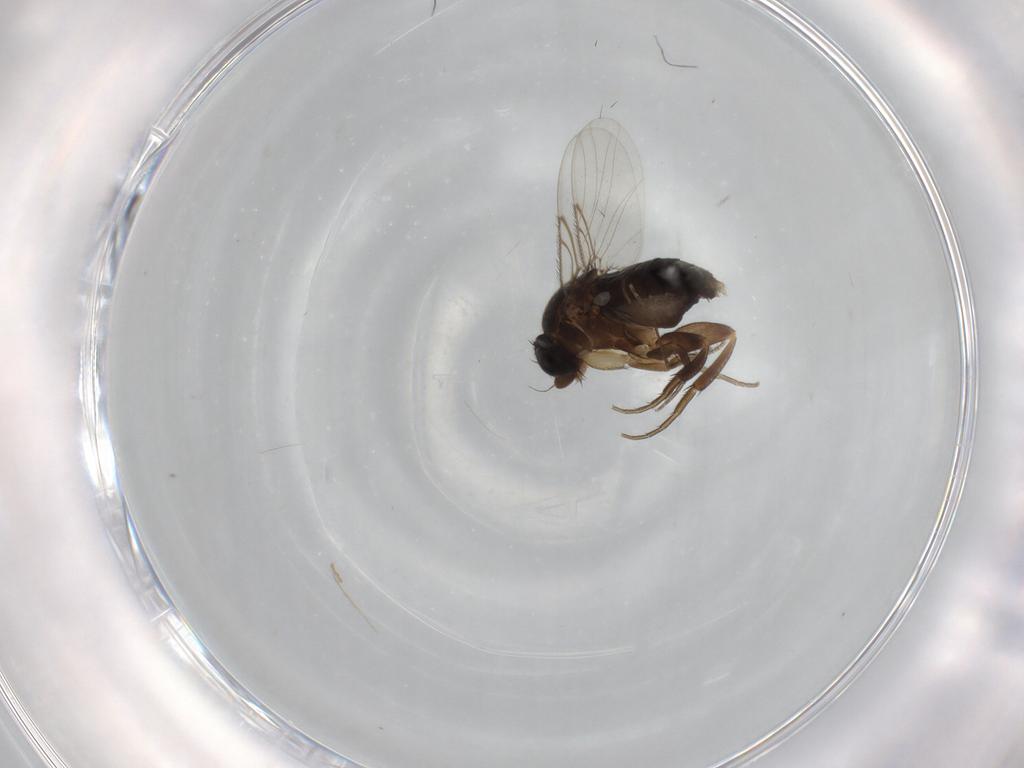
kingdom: Animalia
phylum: Arthropoda
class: Insecta
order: Diptera
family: Phoridae
